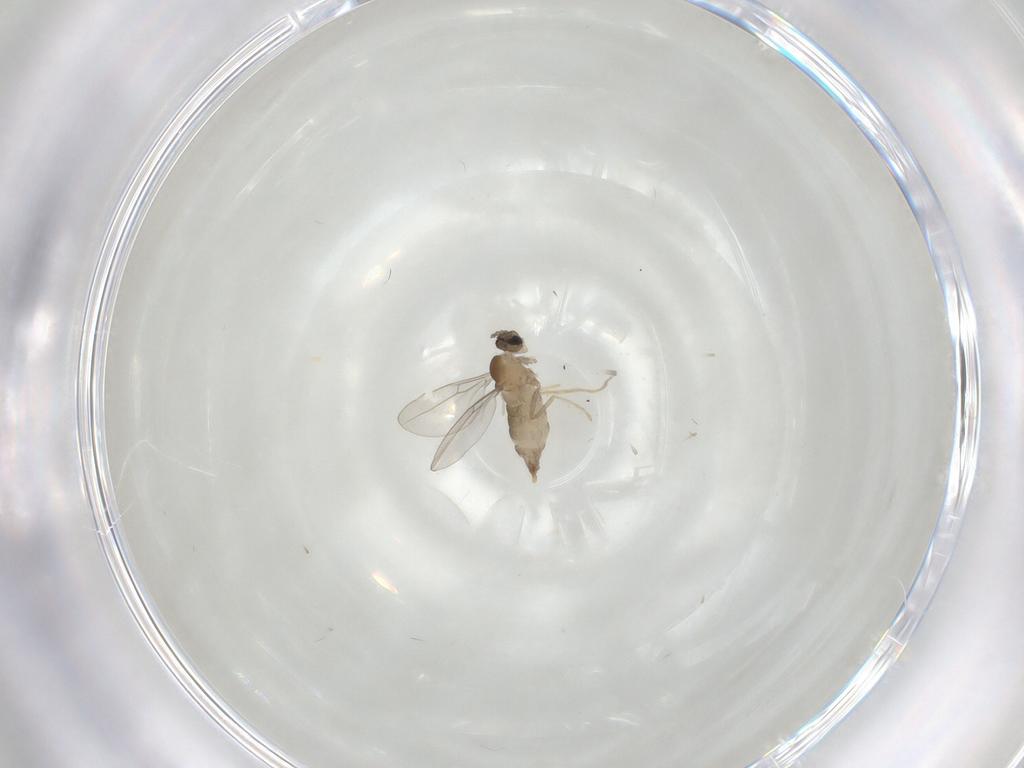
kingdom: Animalia
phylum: Arthropoda
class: Insecta
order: Diptera
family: Cecidomyiidae
